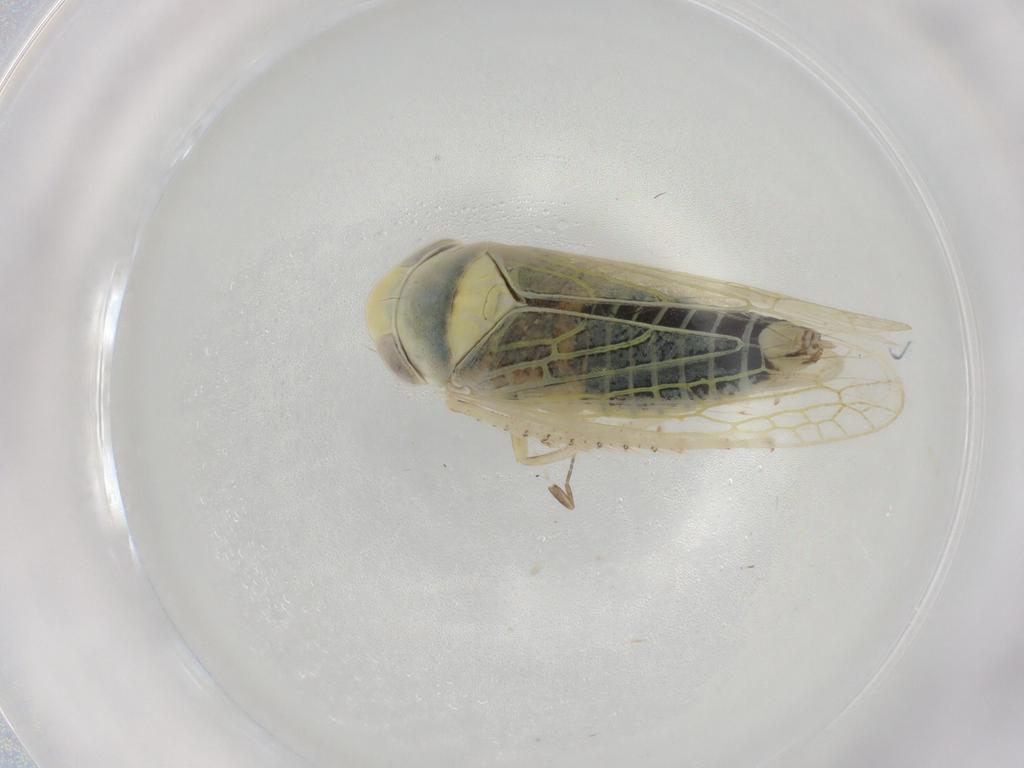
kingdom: Animalia
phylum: Arthropoda
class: Insecta
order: Hemiptera
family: Cicadellidae
